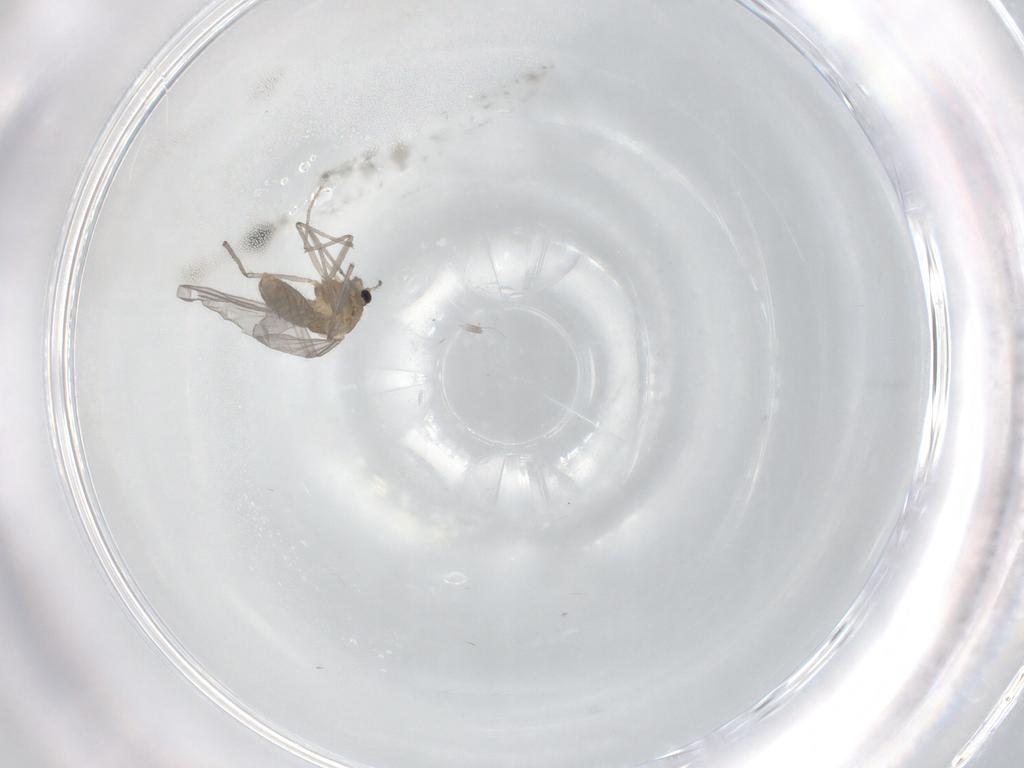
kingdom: Animalia
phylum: Arthropoda
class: Insecta
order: Diptera
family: Chironomidae
